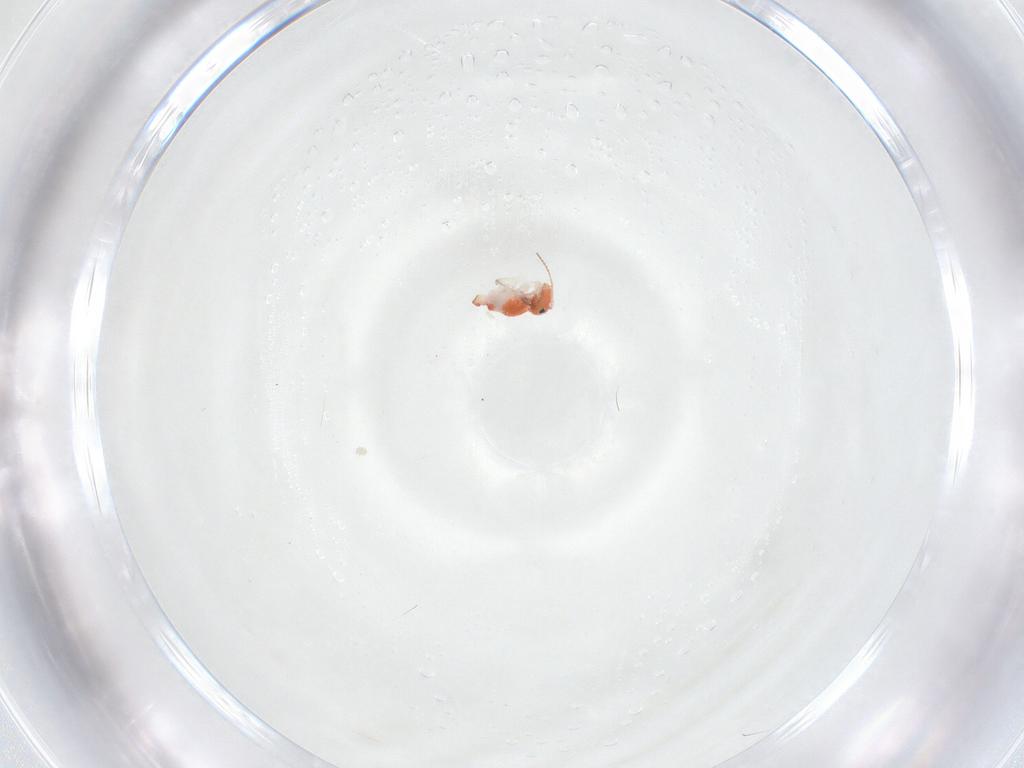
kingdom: Animalia
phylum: Arthropoda
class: Collembola
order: Symphypleona
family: Bourletiellidae
